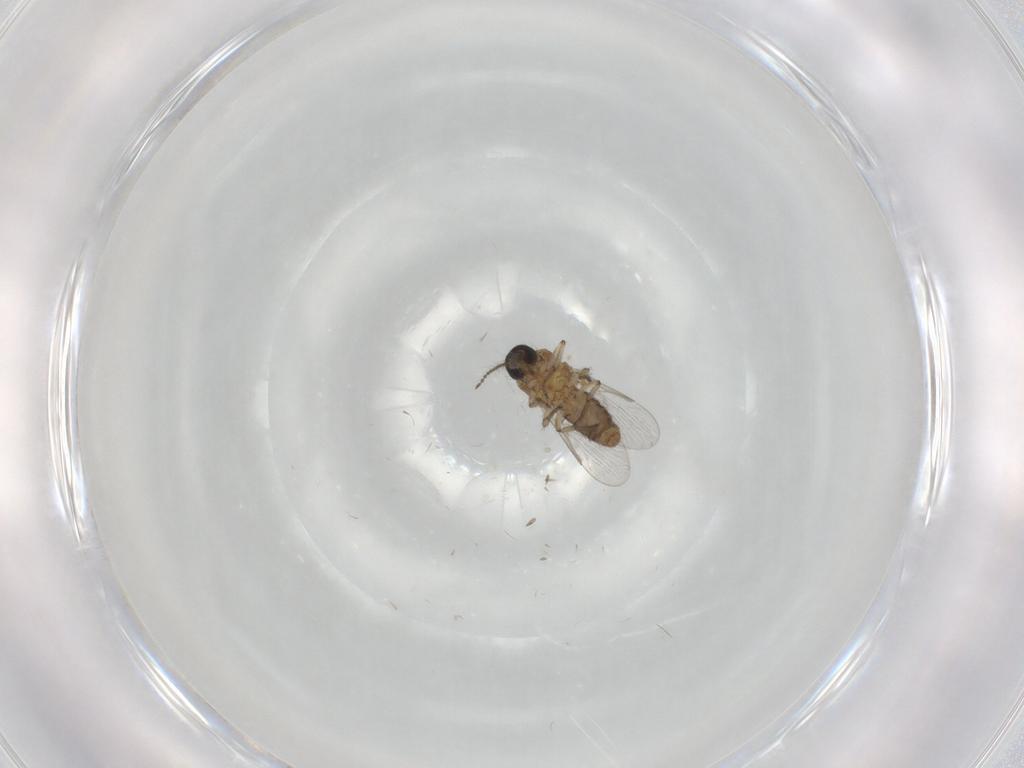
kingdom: Animalia
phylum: Arthropoda
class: Insecta
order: Diptera
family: Ceratopogonidae
